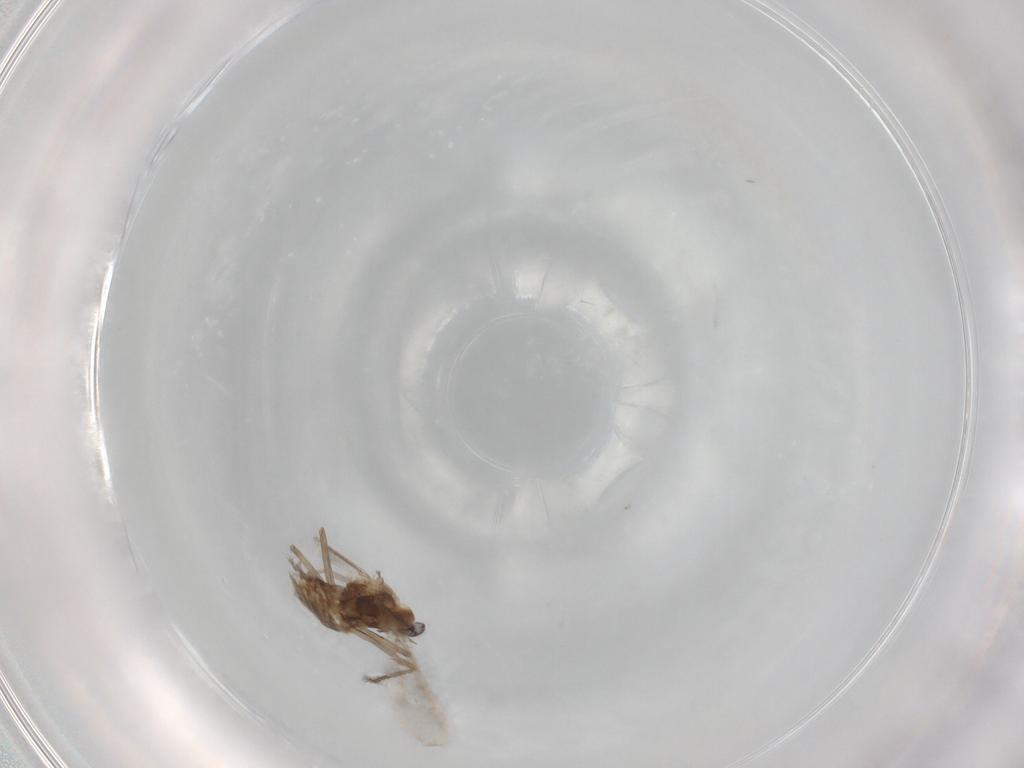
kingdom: Animalia
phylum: Arthropoda
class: Insecta
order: Diptera
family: Chironomidae
